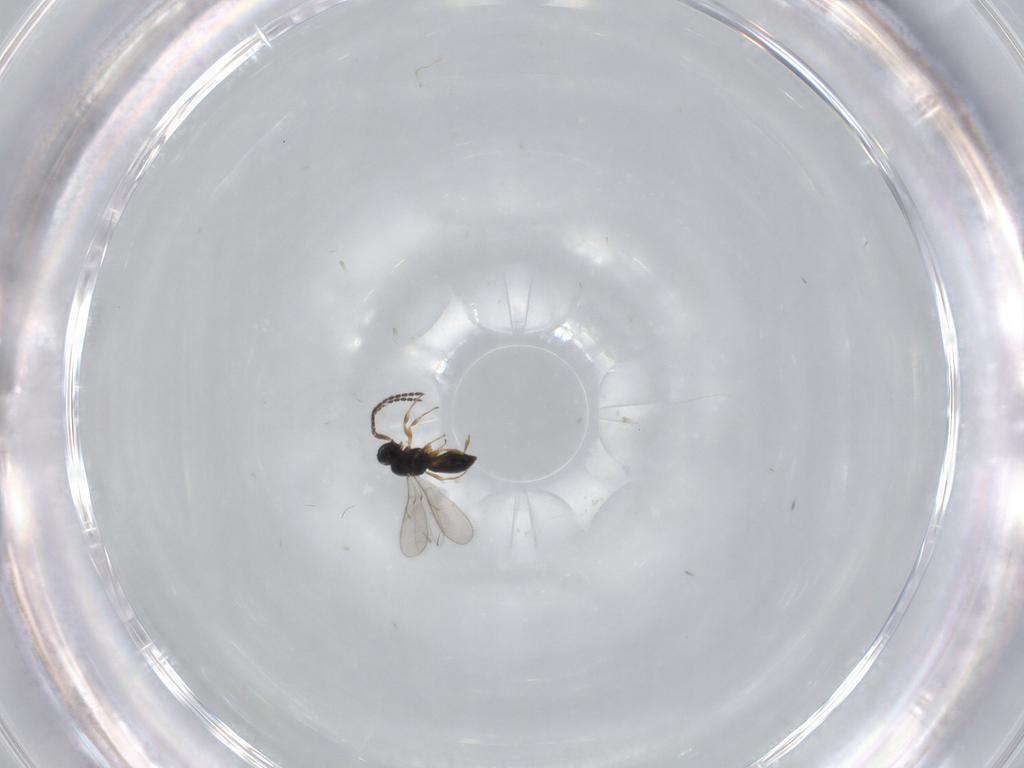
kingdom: Animalia
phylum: Arthropoda
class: Insecta
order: Hymenoptera
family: Scelionidae
